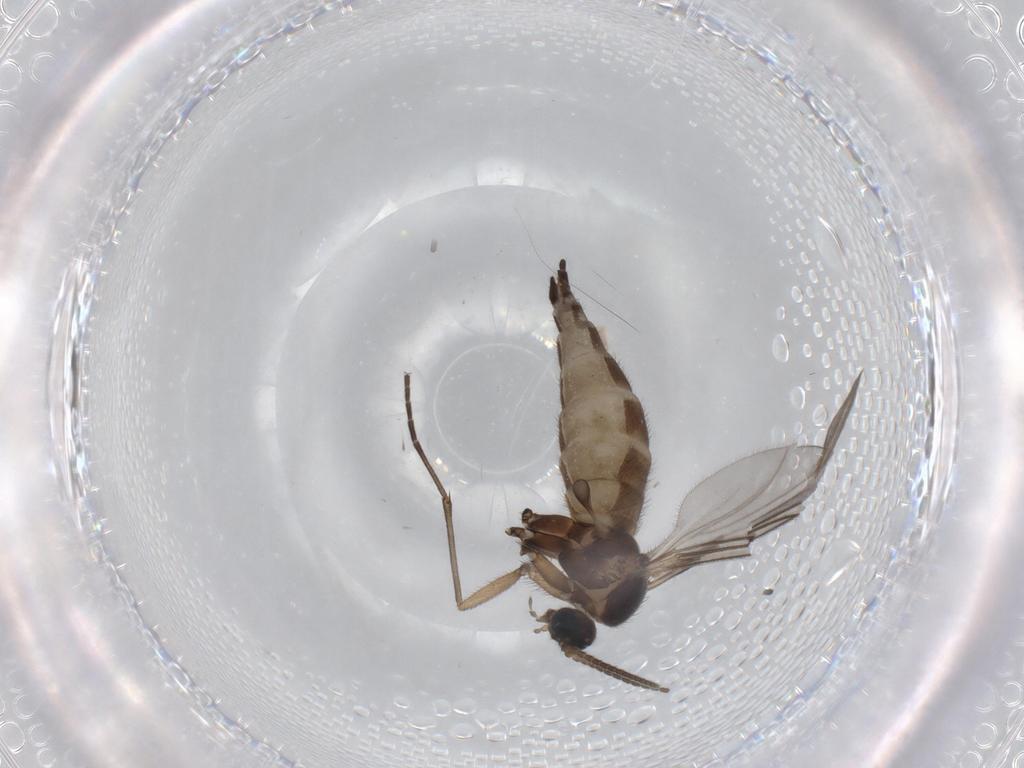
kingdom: Animalia
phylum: Arthropoda
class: Insecta
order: Diptera
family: Sciaridae
